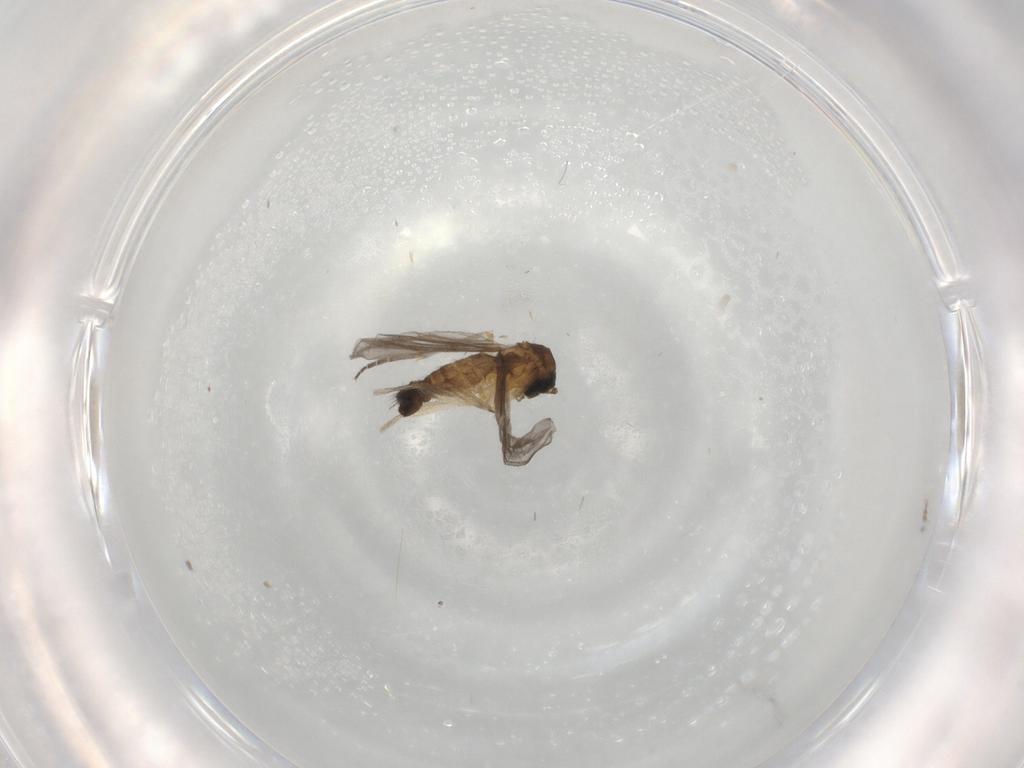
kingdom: Animalia
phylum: Arthropoda
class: Insecta
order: Diptera
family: Sciaridae
